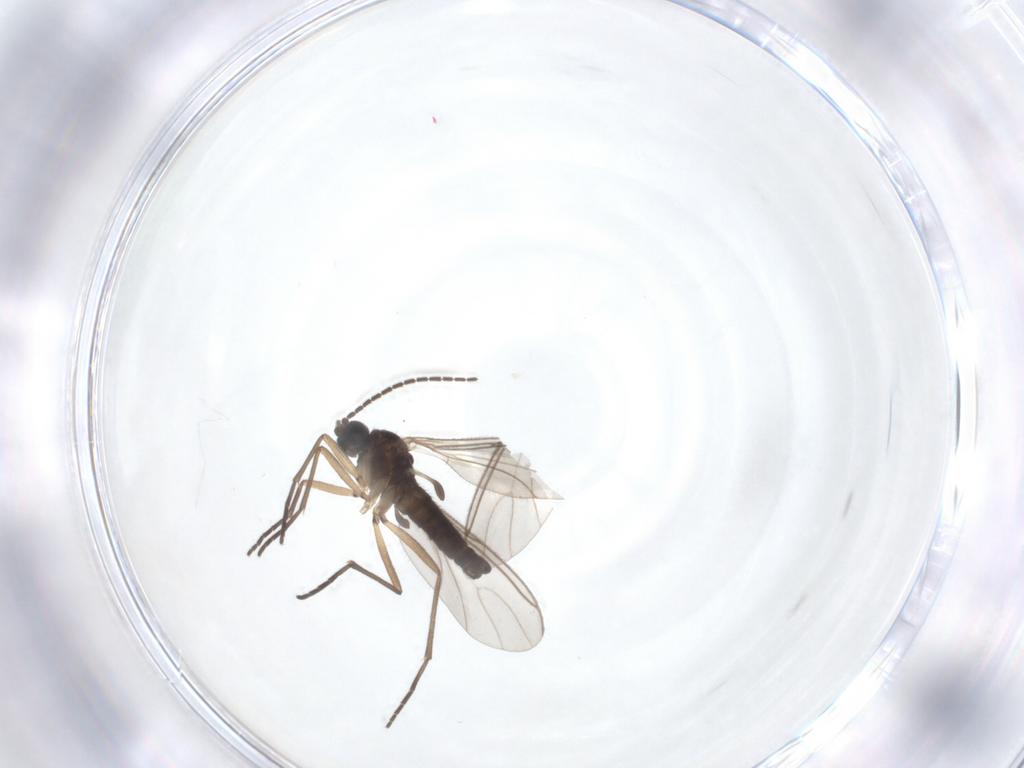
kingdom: Animalia
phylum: Arthropoda
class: Insecta
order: Diptera
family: Sciaridae
